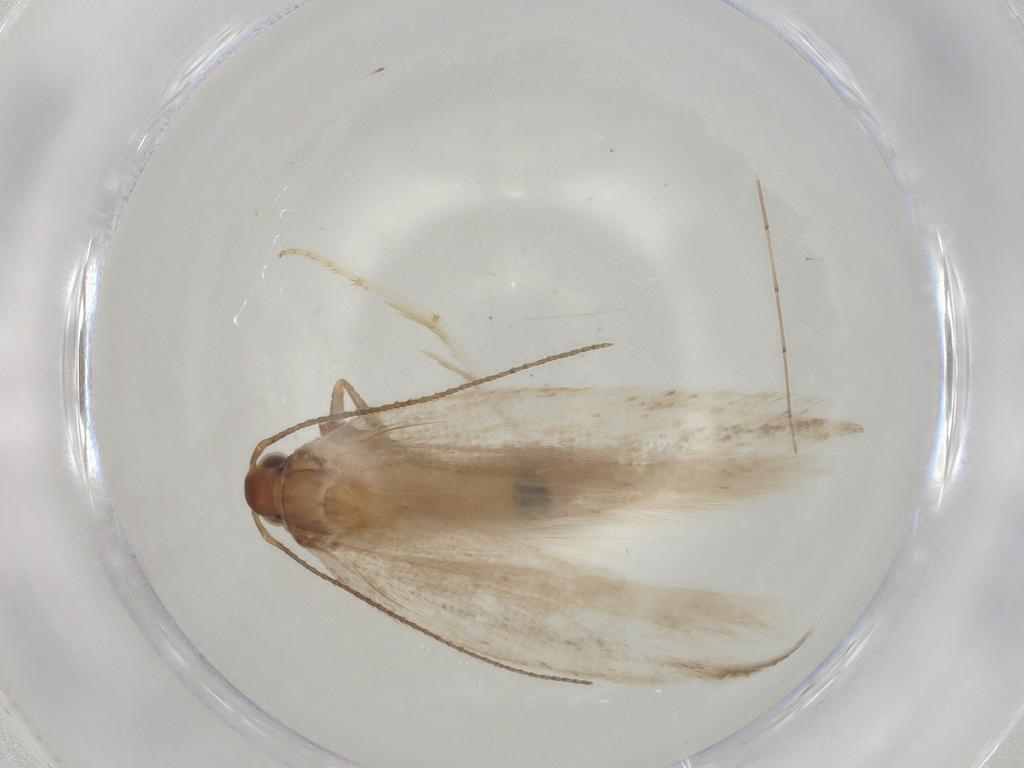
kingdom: Animalia
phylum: Arthropoda
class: Insecta
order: Lepidoptera
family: Gelechiidae
